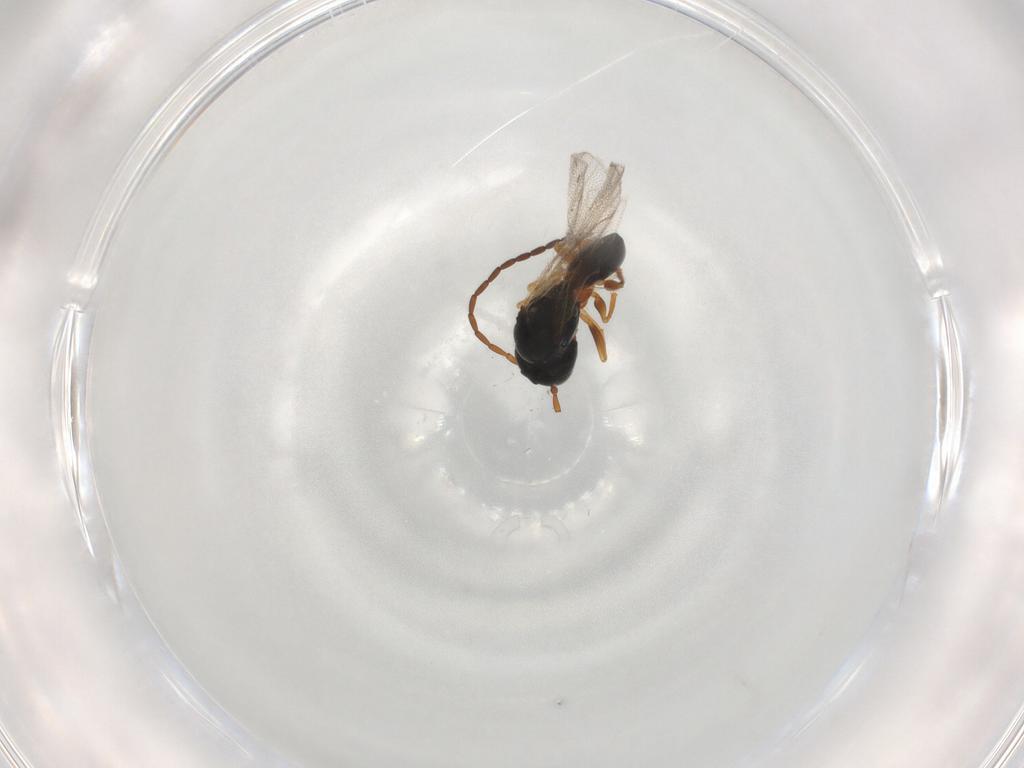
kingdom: Animalia
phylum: Arthropoda
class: Insecta
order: Hymenoptera
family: Figitidae
